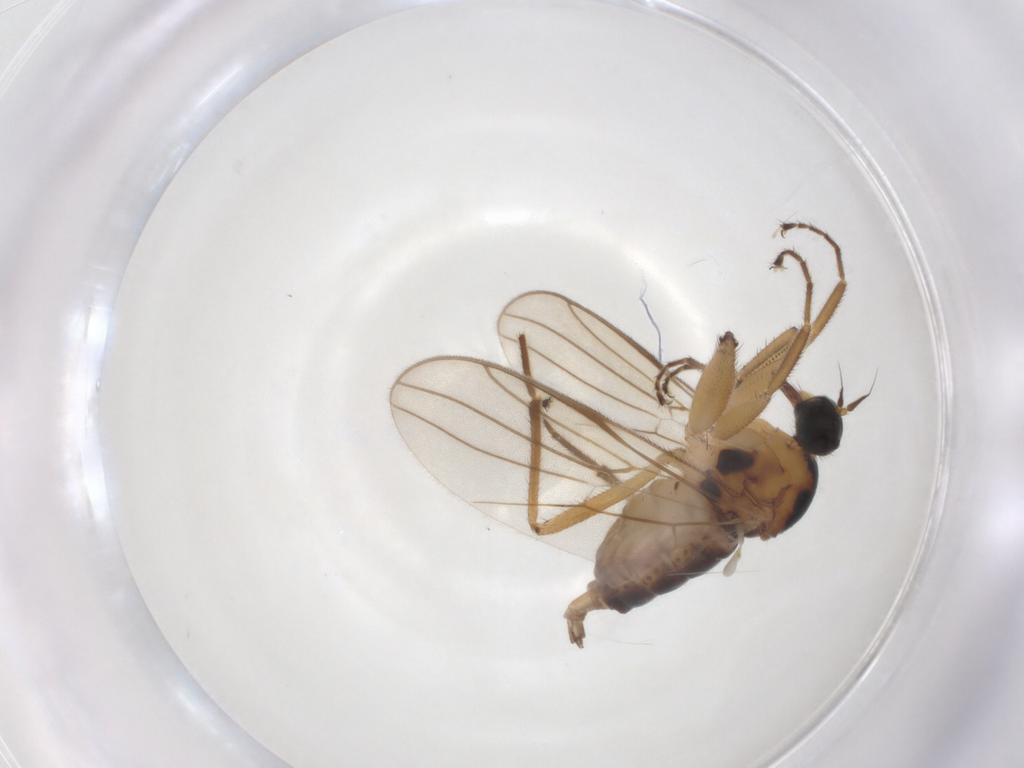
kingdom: Animalia
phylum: Arthropoda
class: Insecta
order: Diptera
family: Hybotidae
